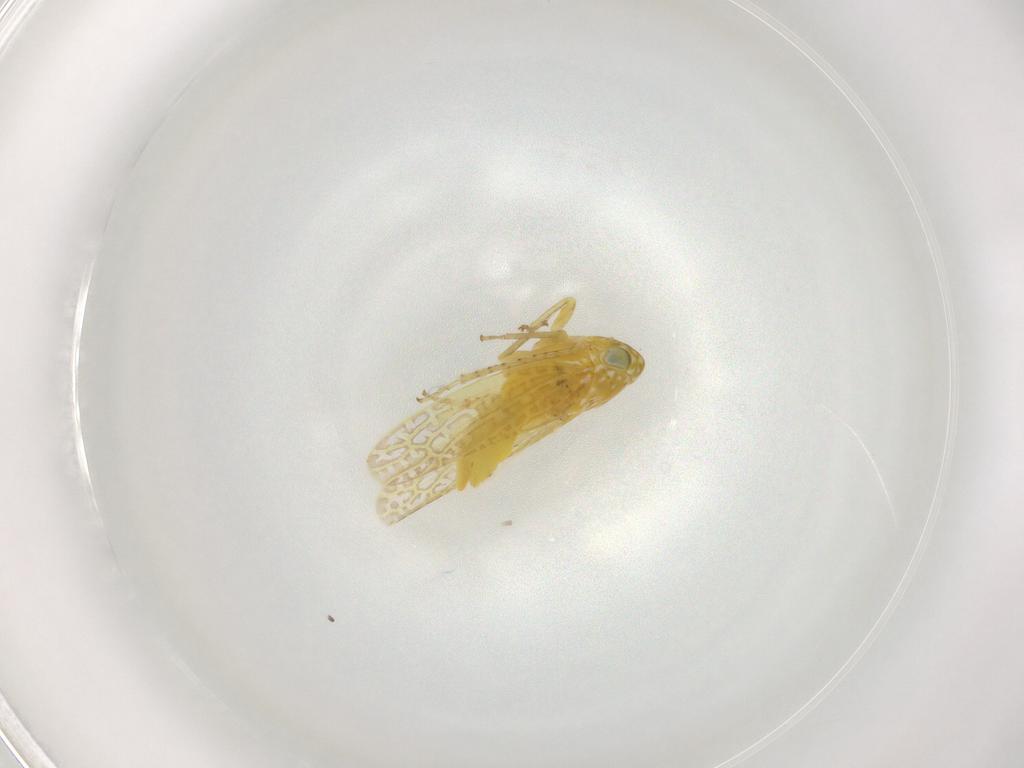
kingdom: Animalia
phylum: Arthropoda
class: Insecta
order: Hemiptera
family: Cicadellidae
